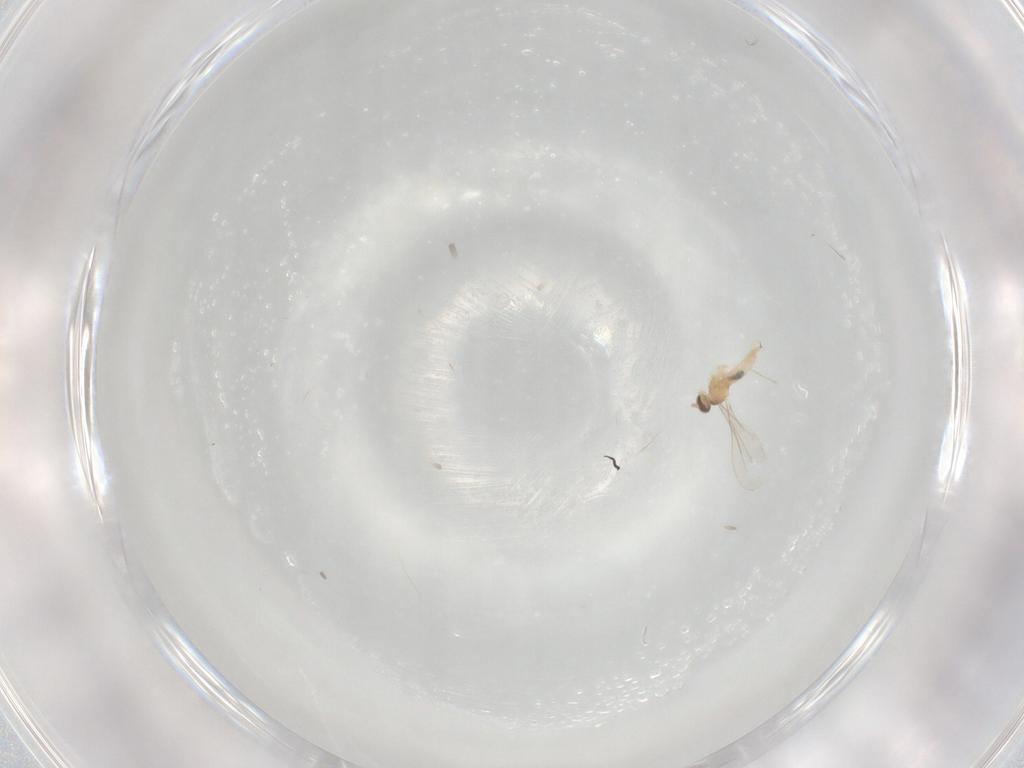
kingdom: Animalia
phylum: Arthropoda
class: Insecta
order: Diptera
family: Cecidomyiidae
